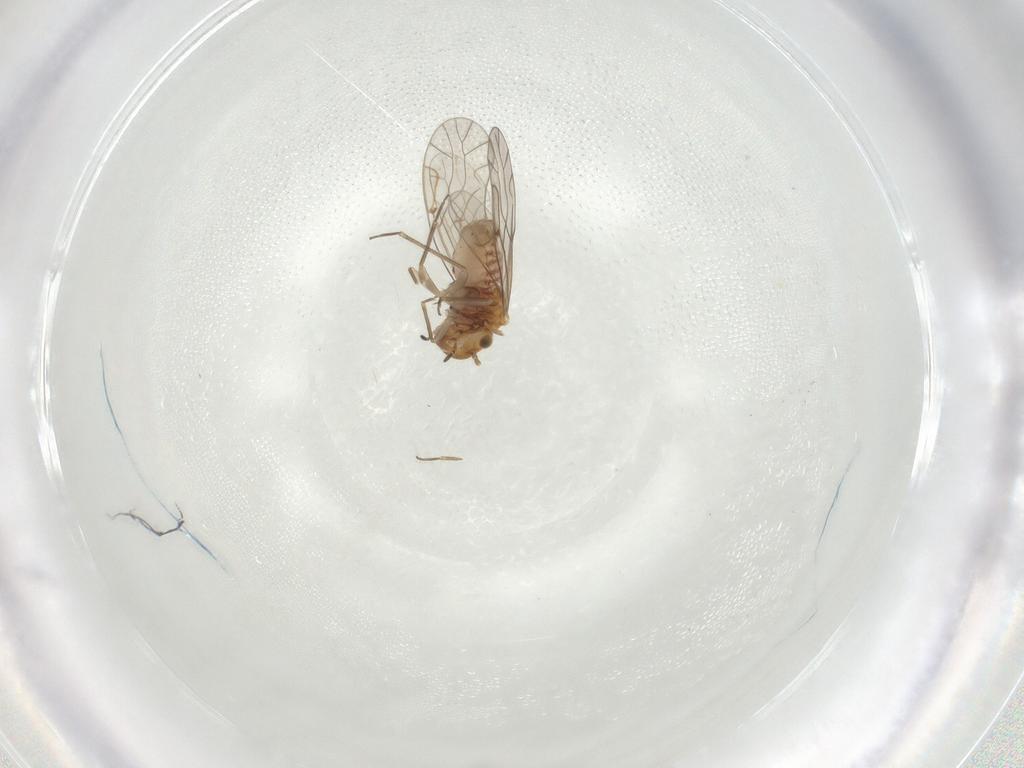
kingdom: Animalia
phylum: Arthropoda
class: Insecta
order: Psocodea
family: Lachesillidae
